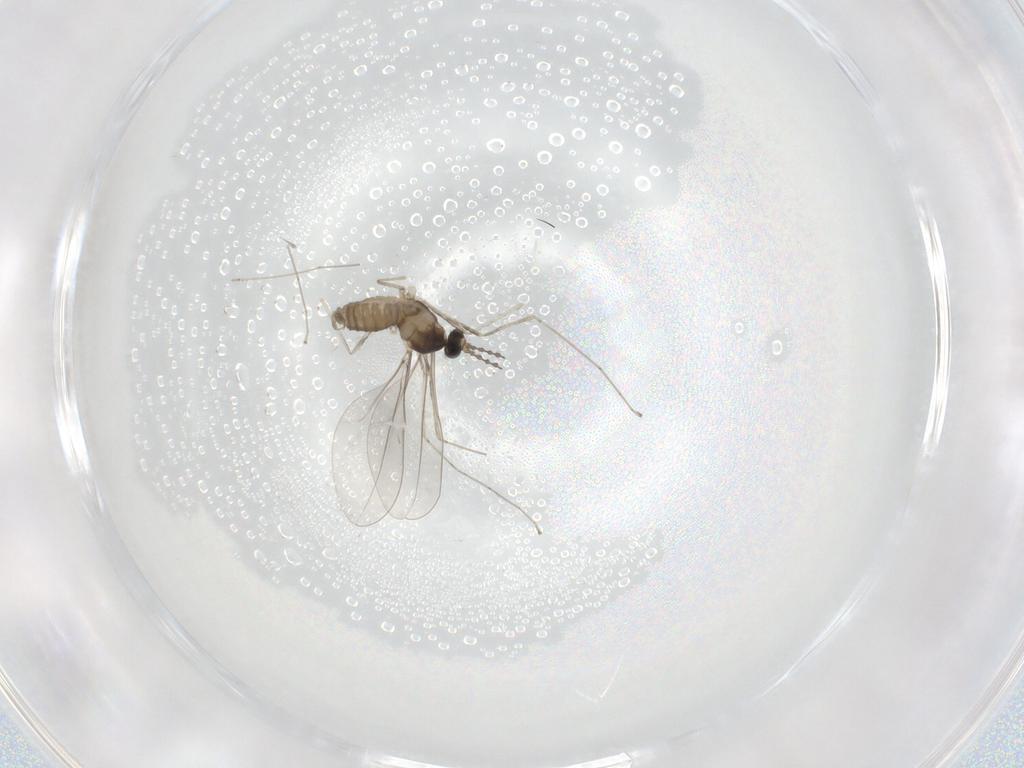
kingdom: Animalia
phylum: Arthropoda
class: Insecta
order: Diptera
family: Cecidomyiidae
